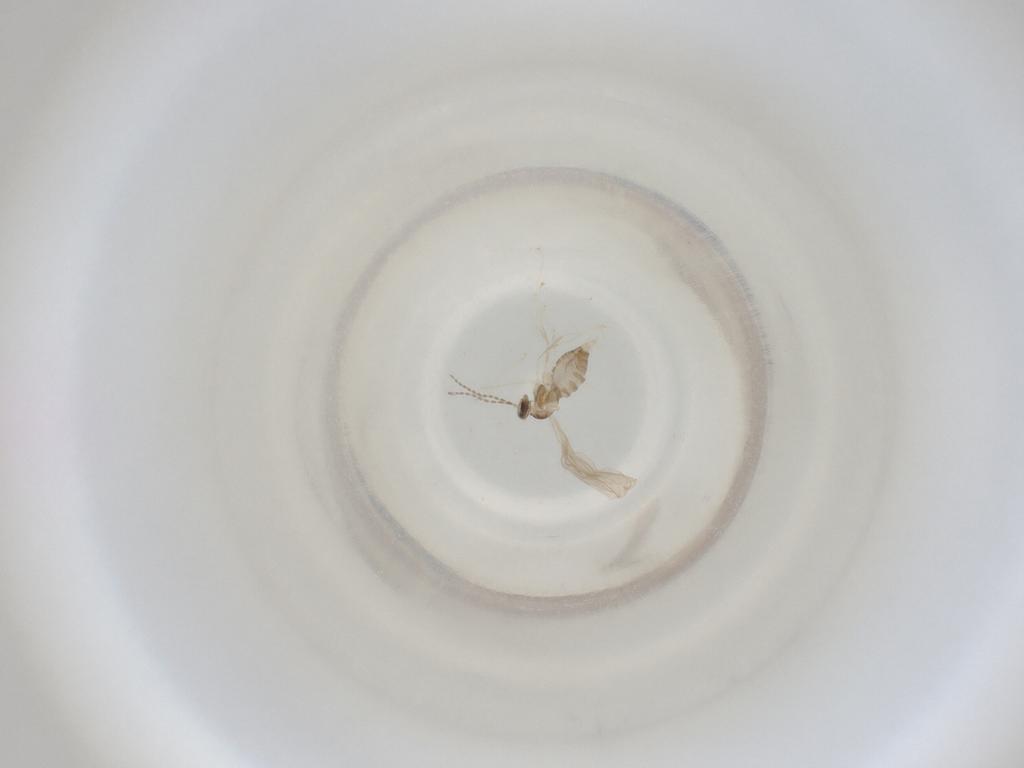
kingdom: Animalia
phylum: Arthropoda
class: Insecta
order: Diptera
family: Cecidomyiidae
